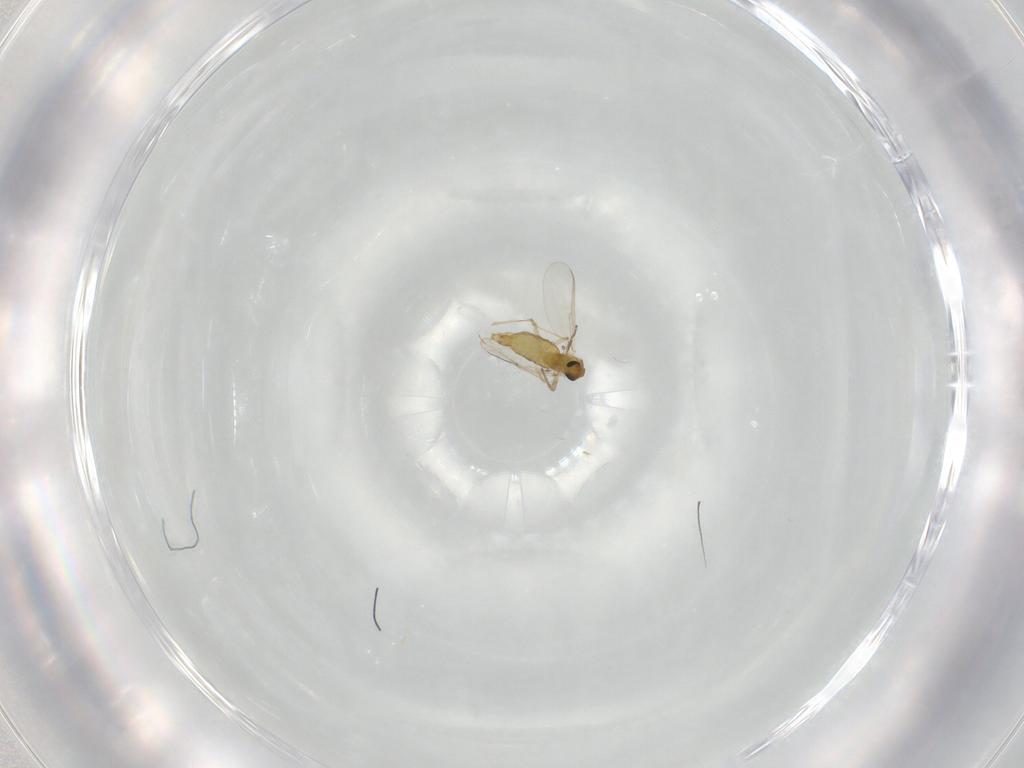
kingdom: Animalia
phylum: Arthropoda
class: Insecta
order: Diptera
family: Chironomidae
